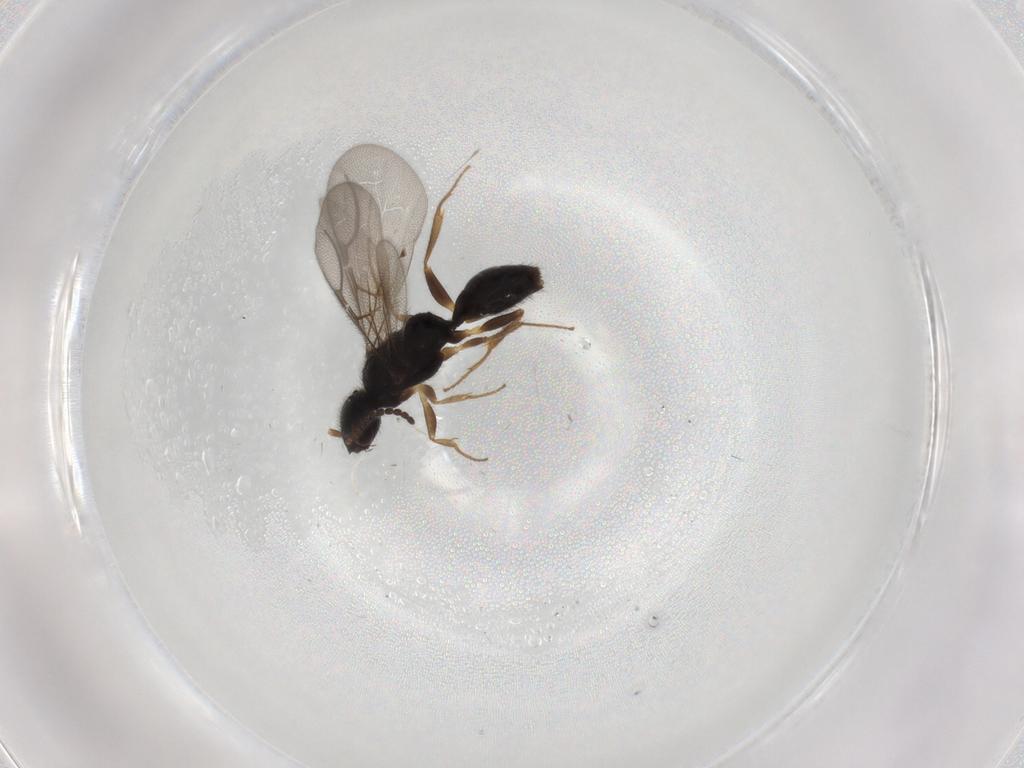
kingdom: Animalia
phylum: Arthropoda
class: Insecta
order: Hymenoptera
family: Bethylidae
